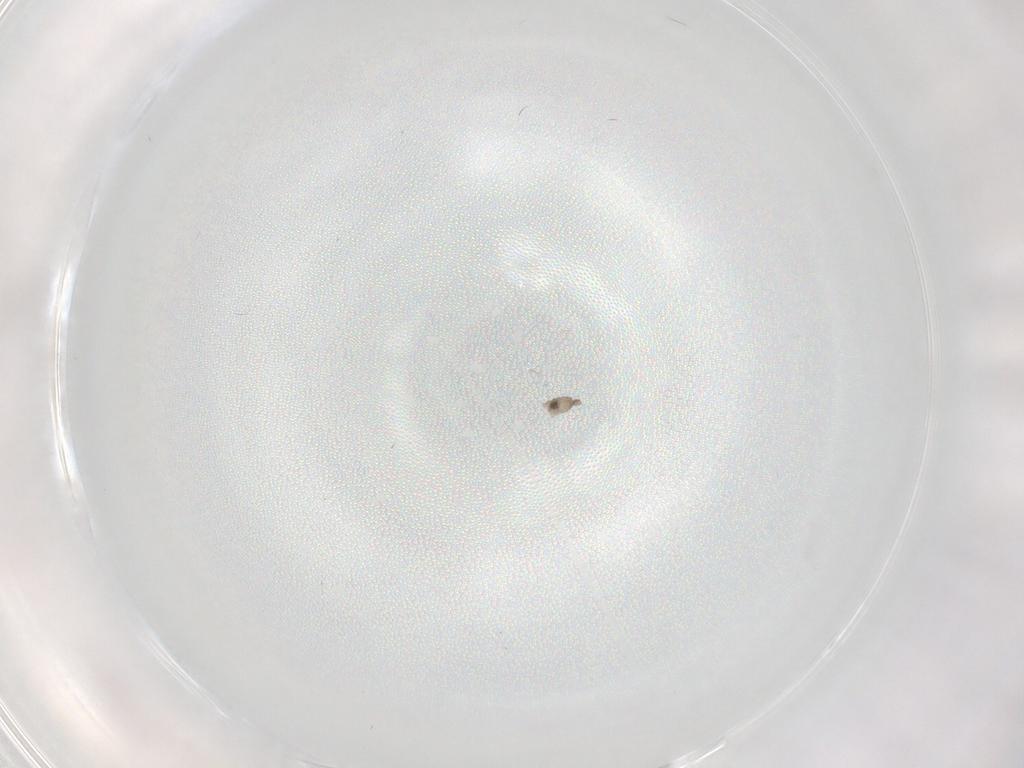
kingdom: Animalia
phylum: Arthropoda
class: Insecta
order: Diptera
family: Cecidomyiidae
